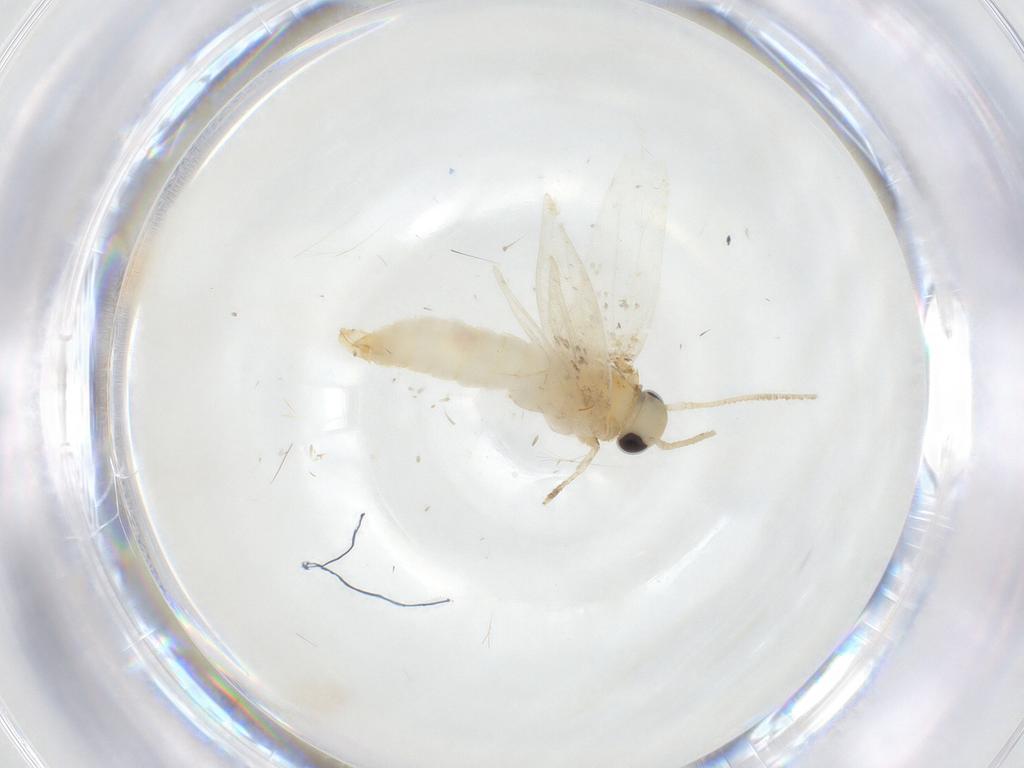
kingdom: Animalia
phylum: Arthropoda
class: Insecta
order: Lepidoptera
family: Erebidae
